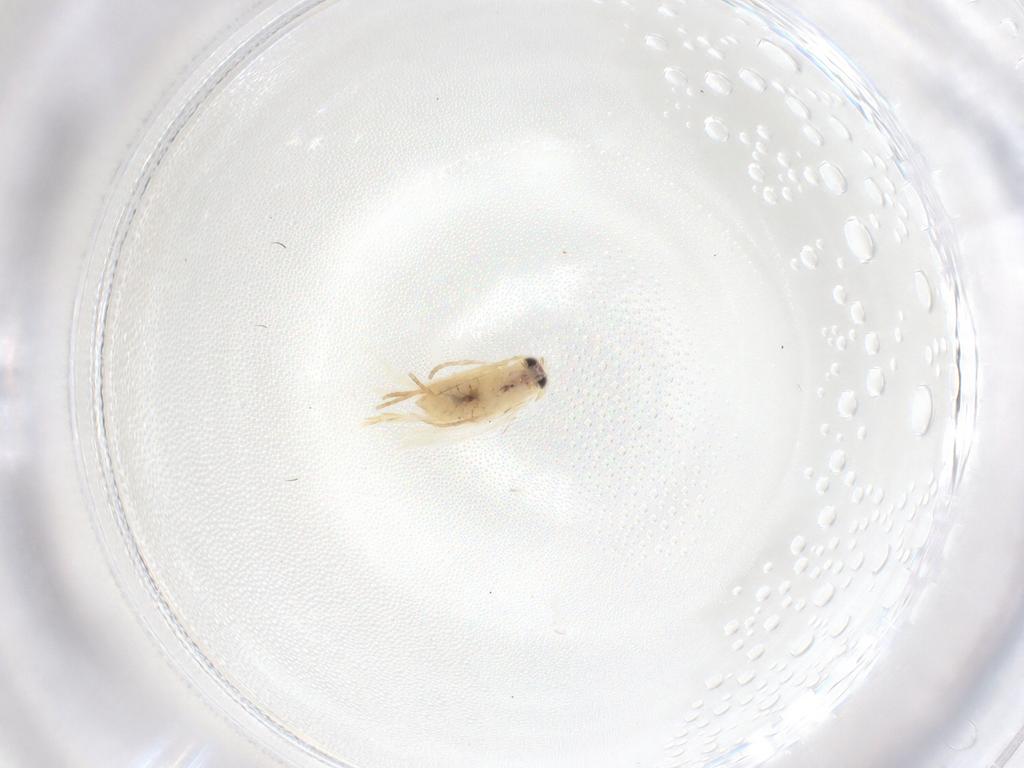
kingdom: Animalia
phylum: Arthropoda
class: Insecta
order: Lepidoptera
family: Nepticulidae
